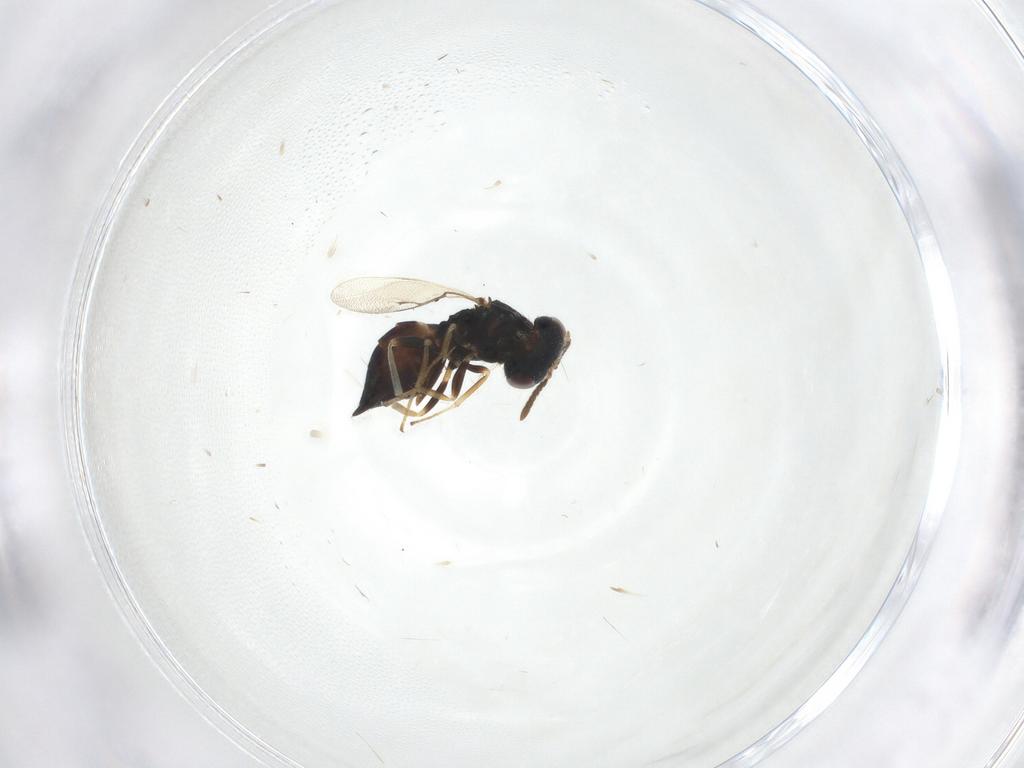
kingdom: Animalia
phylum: Arthropoda
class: Insecta
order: Hymenoptera
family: Pteromalidae
